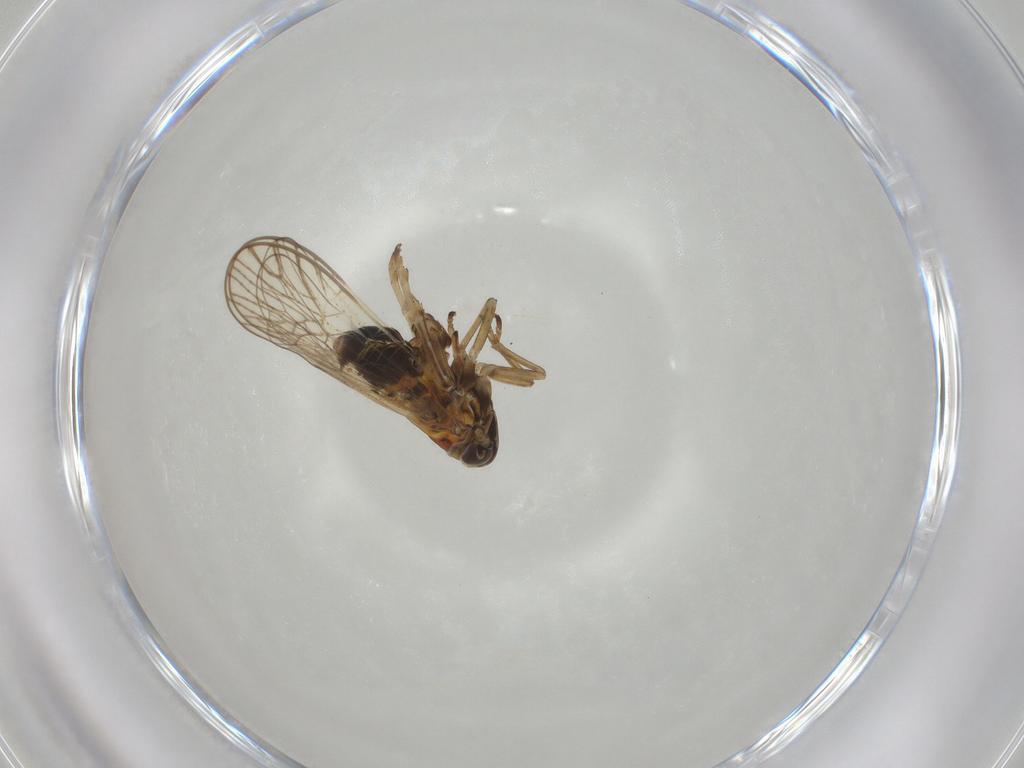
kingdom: Animalia
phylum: Arthropoda
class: Insecta
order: Hemiptera
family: Delphacidae
